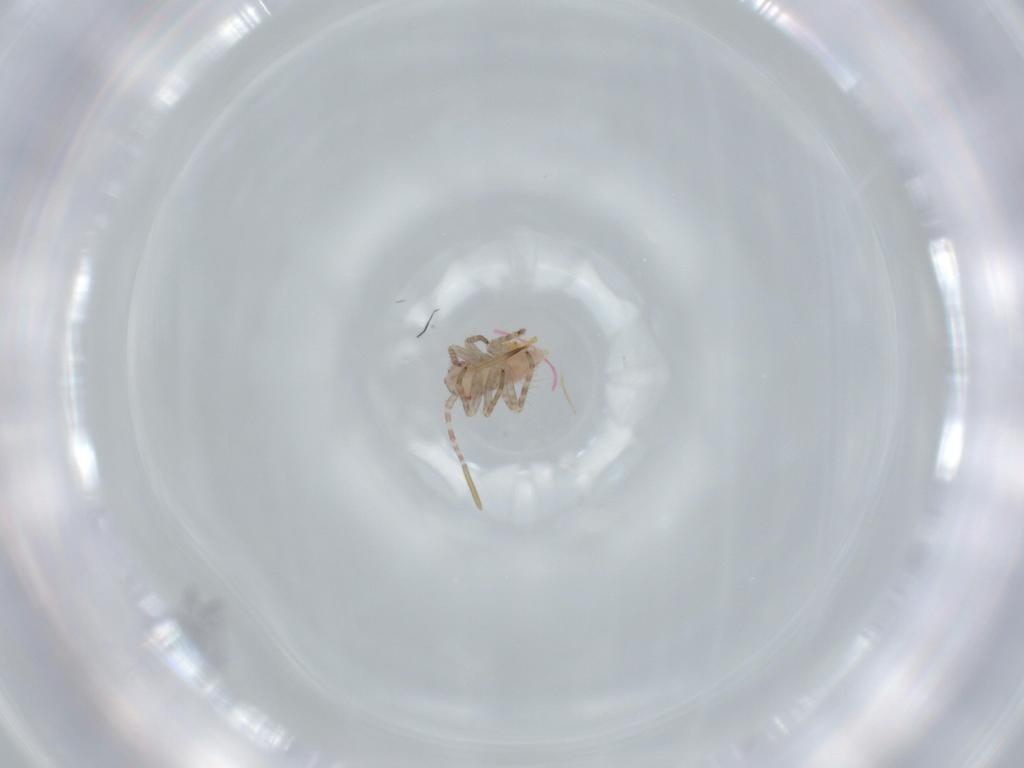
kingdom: Animalia
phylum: Arthropoda
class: Insecta
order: Hemiptera
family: Miridae
